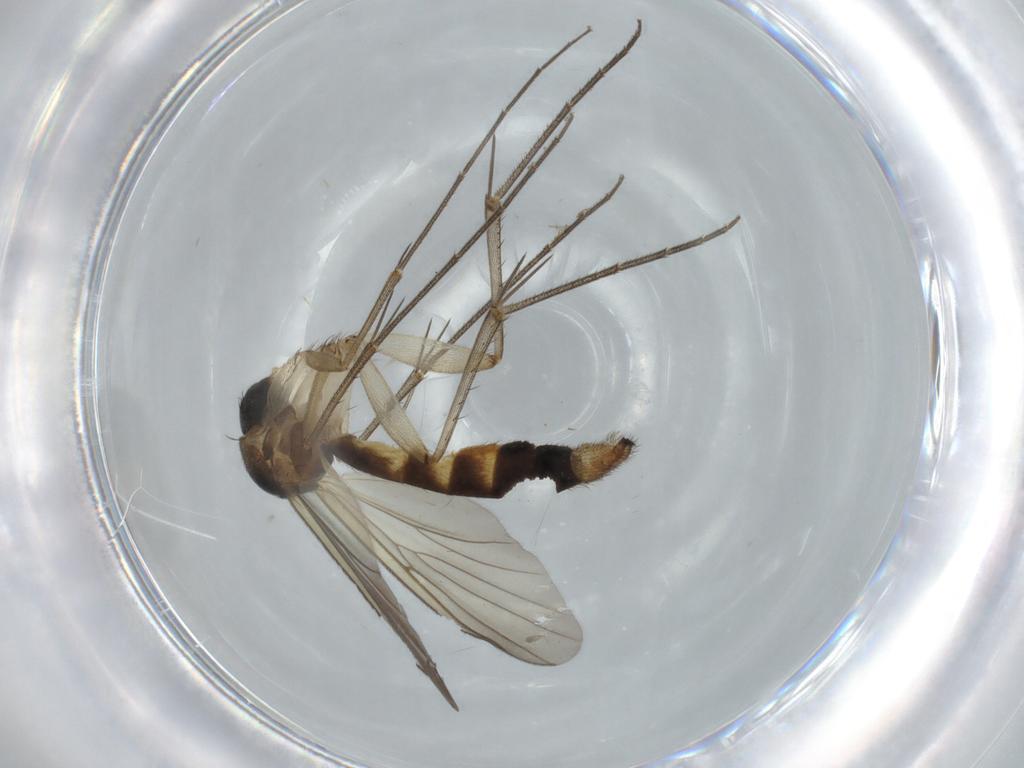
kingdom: Animalia
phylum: Arthropoda
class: Insecta
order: Diptera
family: Mycetophilidae
